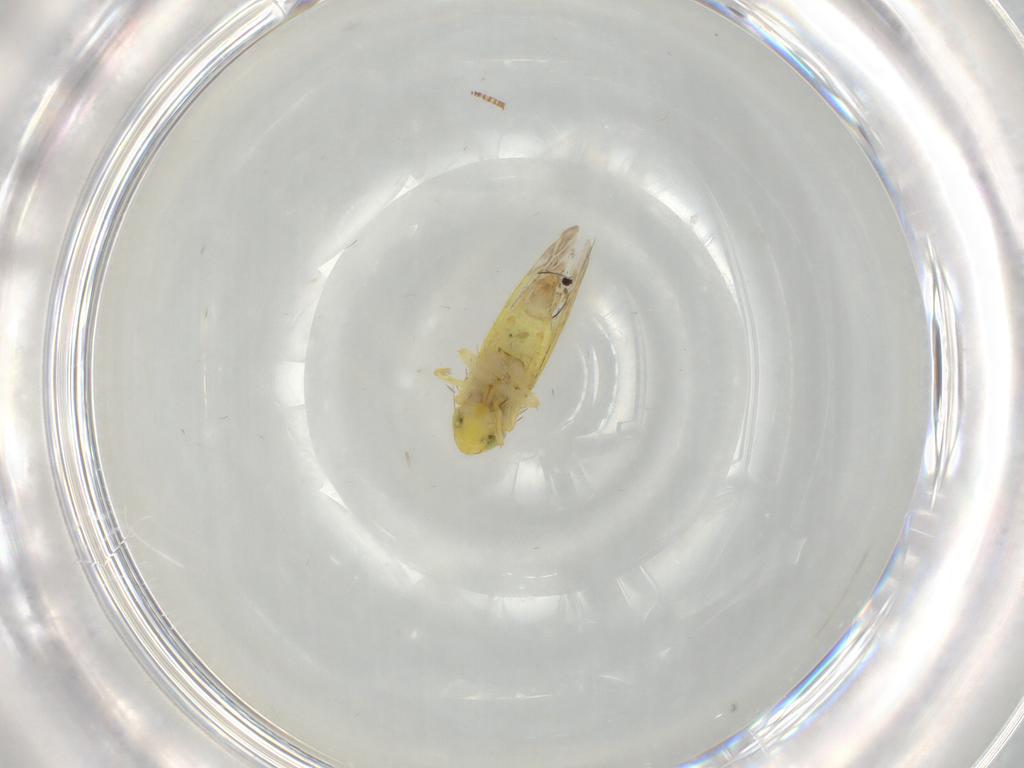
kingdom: Animalia
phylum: Arthropoda
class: Insecta
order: Hemiptera
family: Cicadellidae
